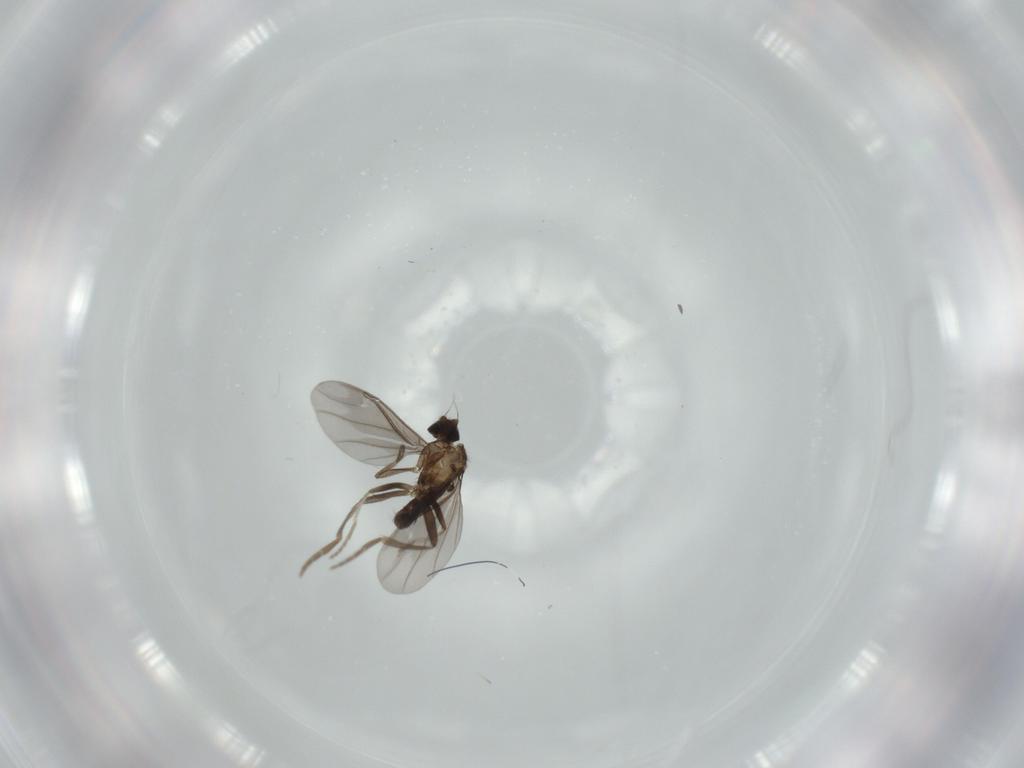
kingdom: Animalia
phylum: Arthropoda
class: Insecta
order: Diptera
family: Phoridae
